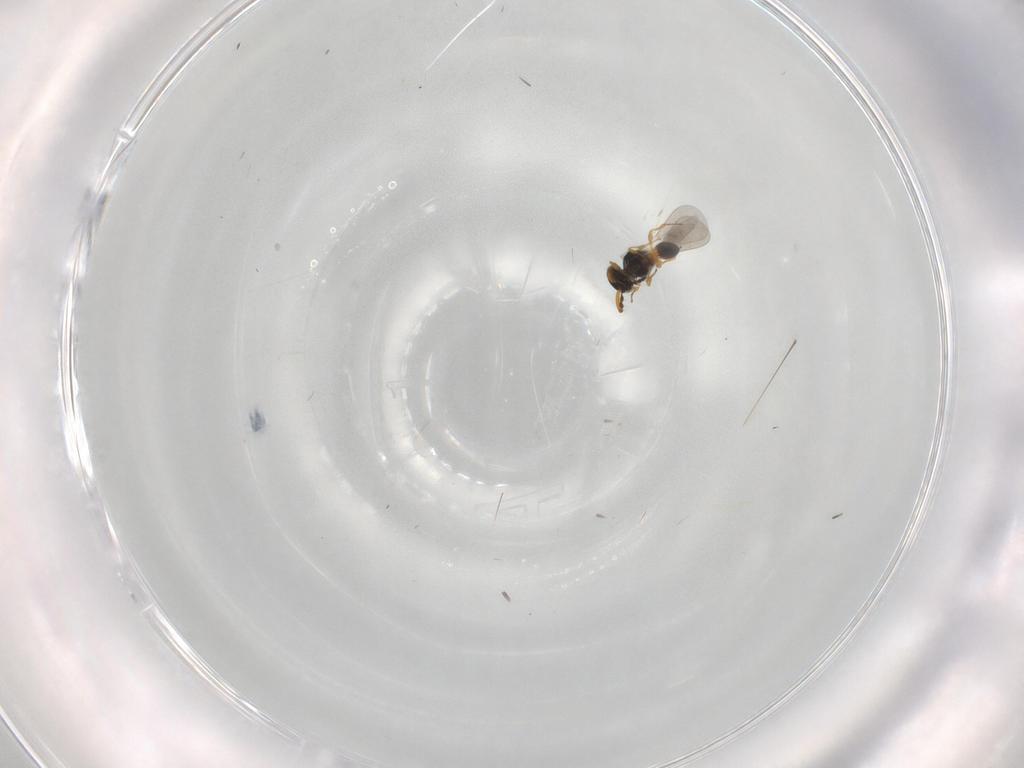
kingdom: Animalia
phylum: Arthropoda
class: Insecta
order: Hymenoptera
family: Platygastridae
